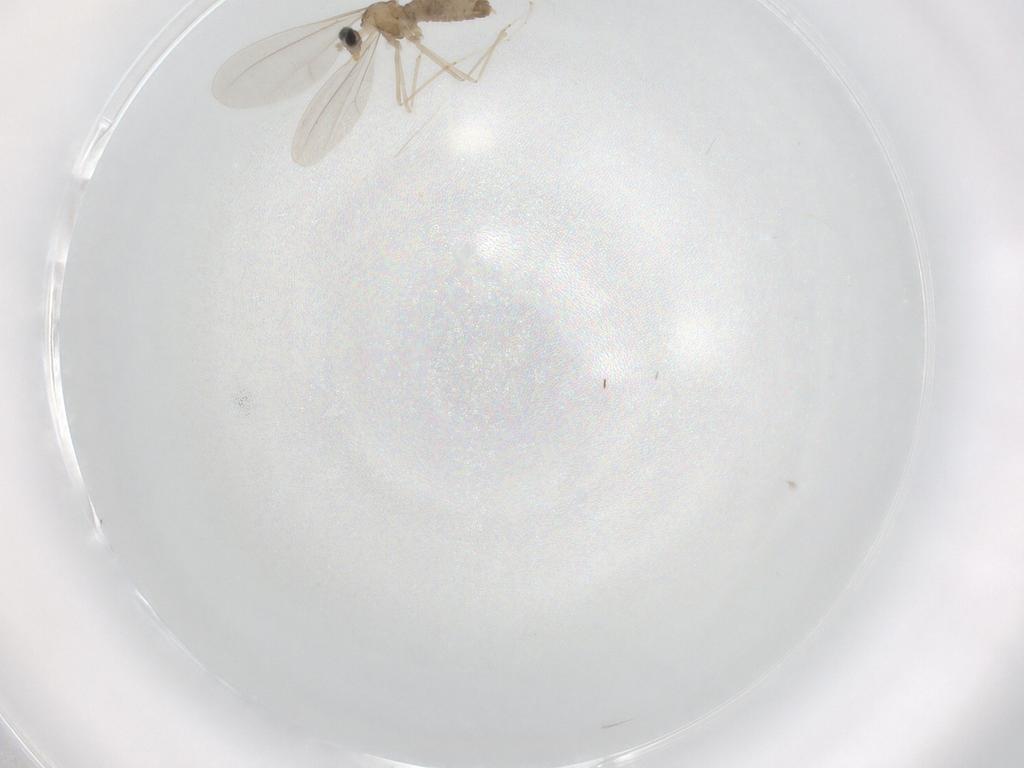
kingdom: Animalia
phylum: Arthropoda
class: Insecta
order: Diptera
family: Cecidomyiidae
